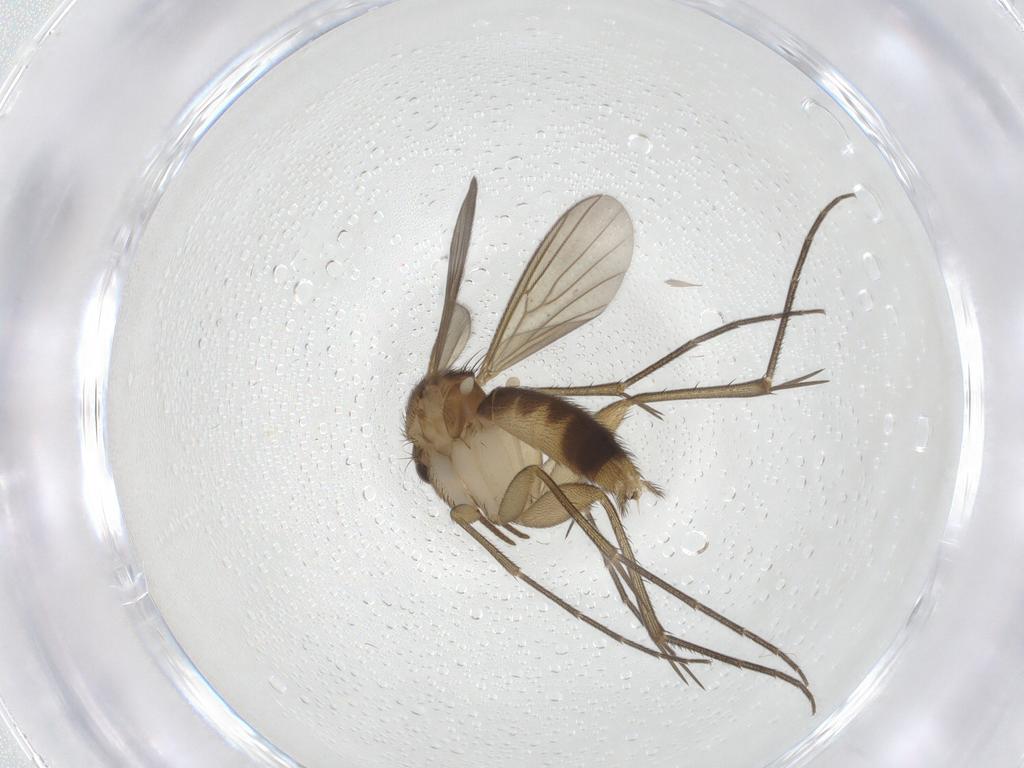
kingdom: Animalia
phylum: Arthropoda
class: Insecta
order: Diptera
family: Mycetophilidae
